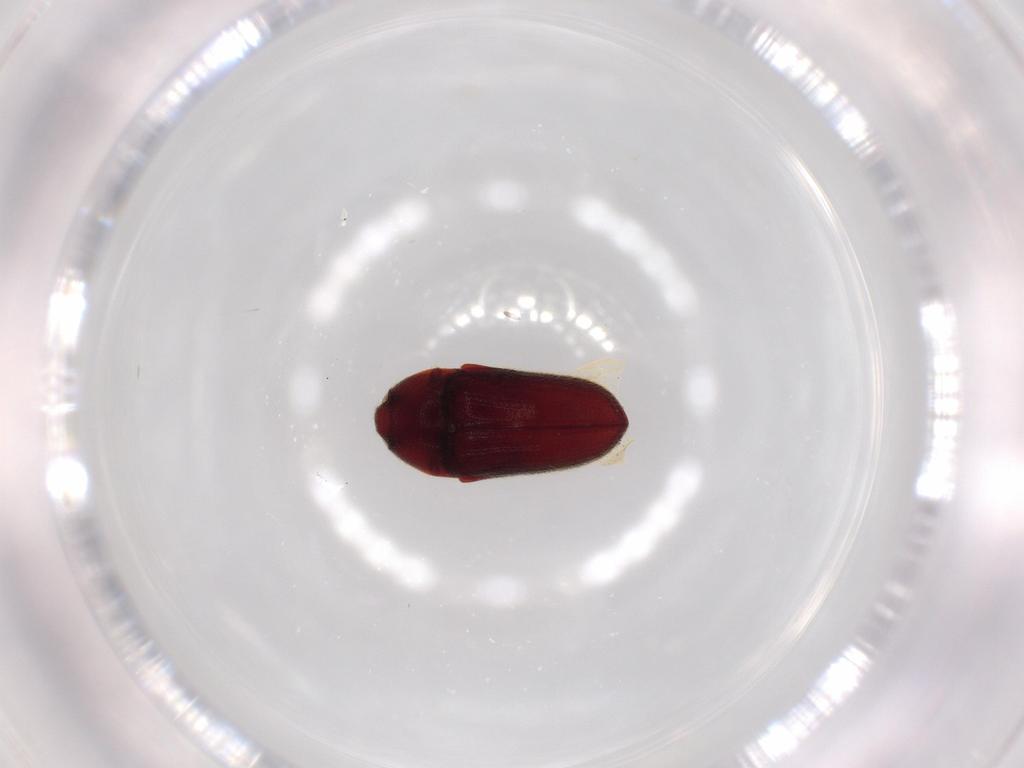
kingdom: Animalia
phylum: Arthropoda
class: Insecta
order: Coleoptera
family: Throscidae
